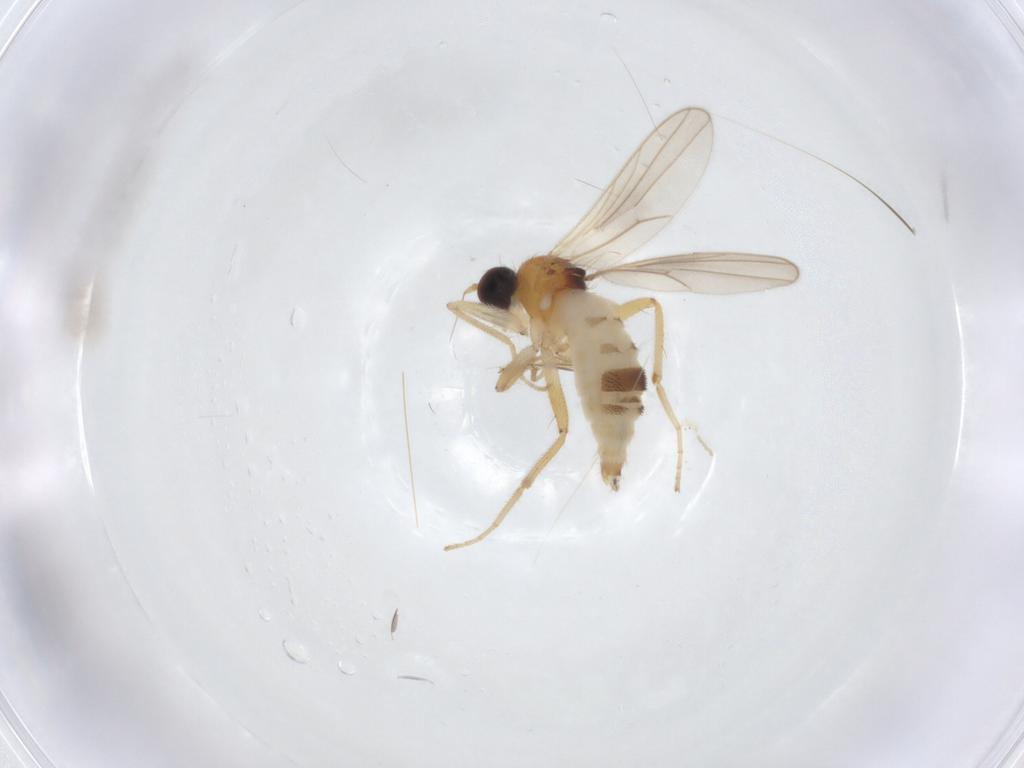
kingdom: Animalia
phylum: Arthropoda
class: Insecta
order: Diptera
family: Hybotidae
